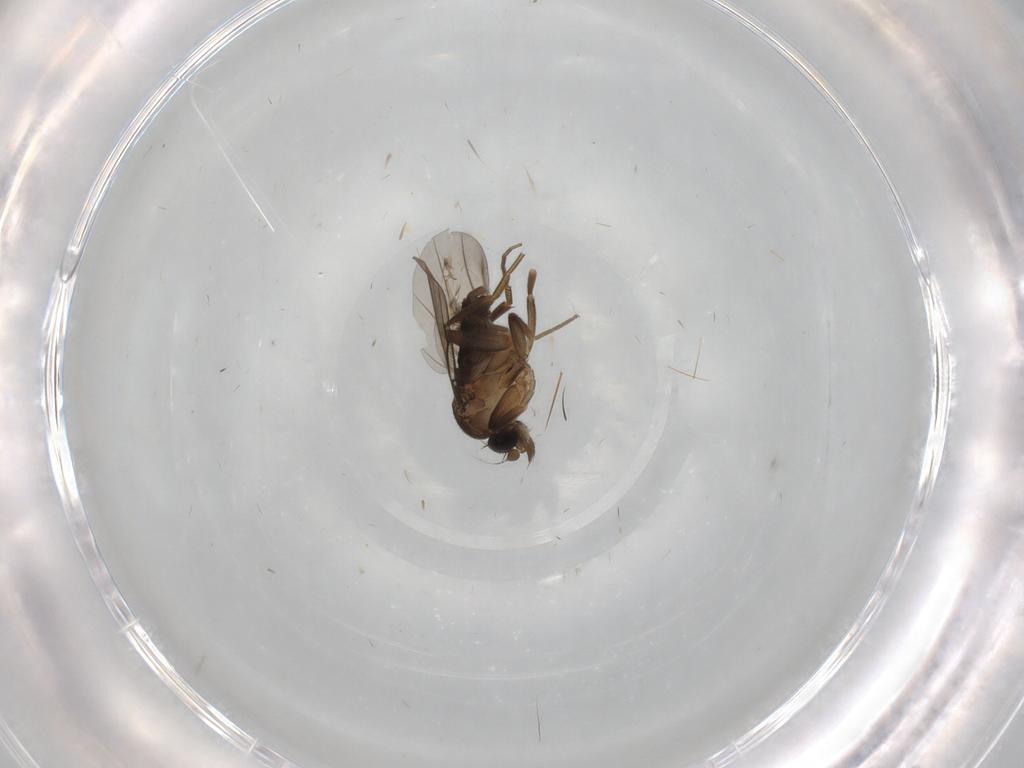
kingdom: Animalia
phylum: Arthropoda
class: Insecta
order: Diptera
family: Phoridae
